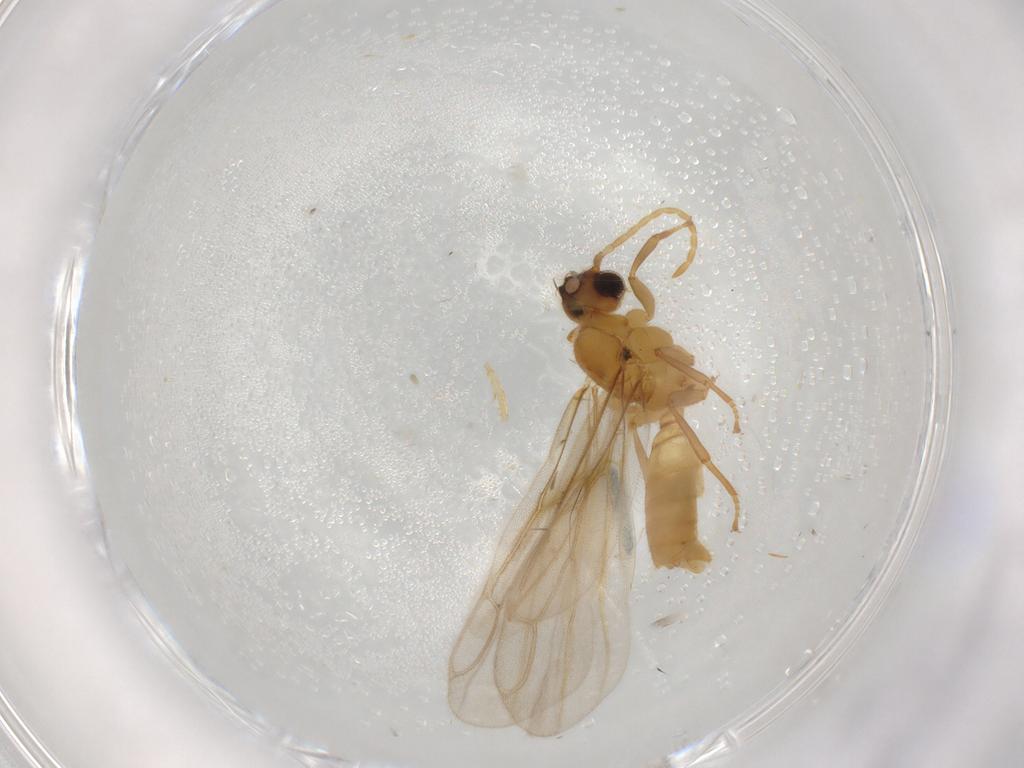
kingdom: Animalia
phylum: Arthropoda
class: Insecta
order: Hymenoptera
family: Formicidae
